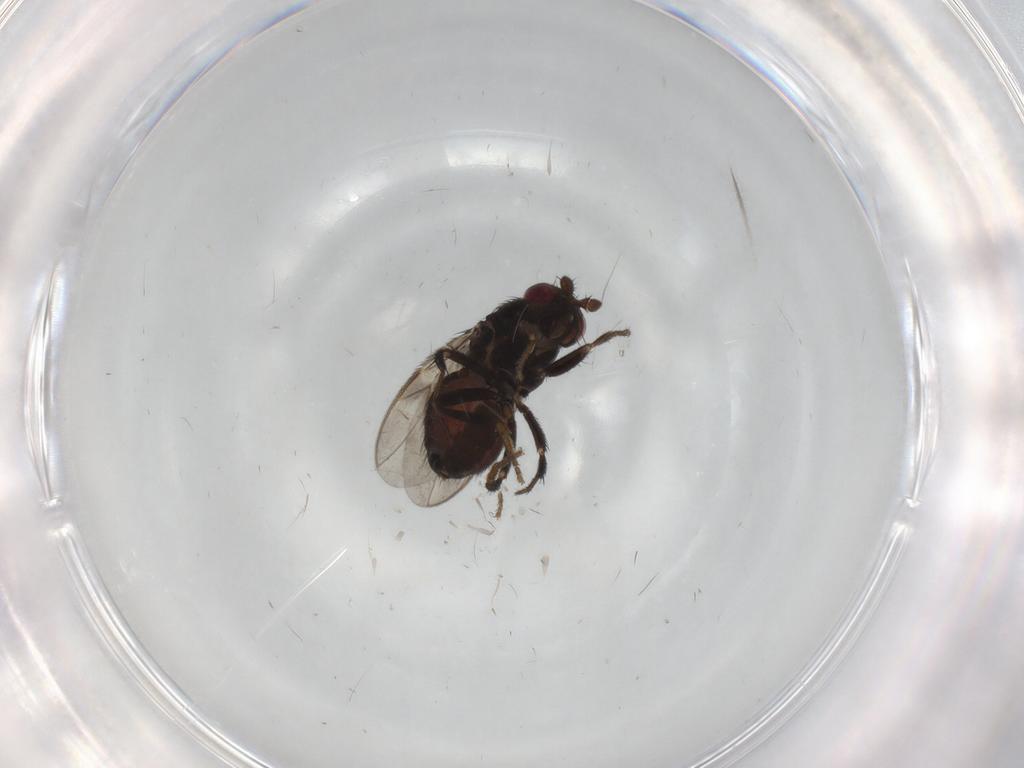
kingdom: Animalia
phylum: Arthropoda
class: Insecta
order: Diptera
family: Sphaeroceridae
